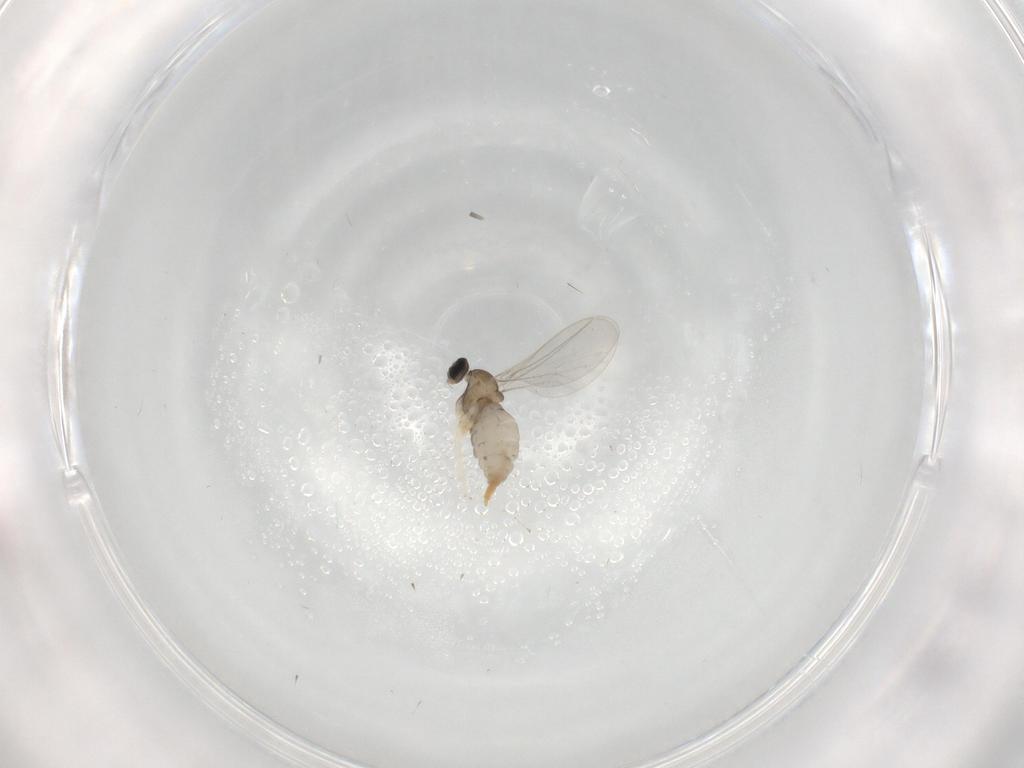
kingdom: Animalia
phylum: Arthropoda
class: Insecta
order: Diptera
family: Cecidomyiidae
